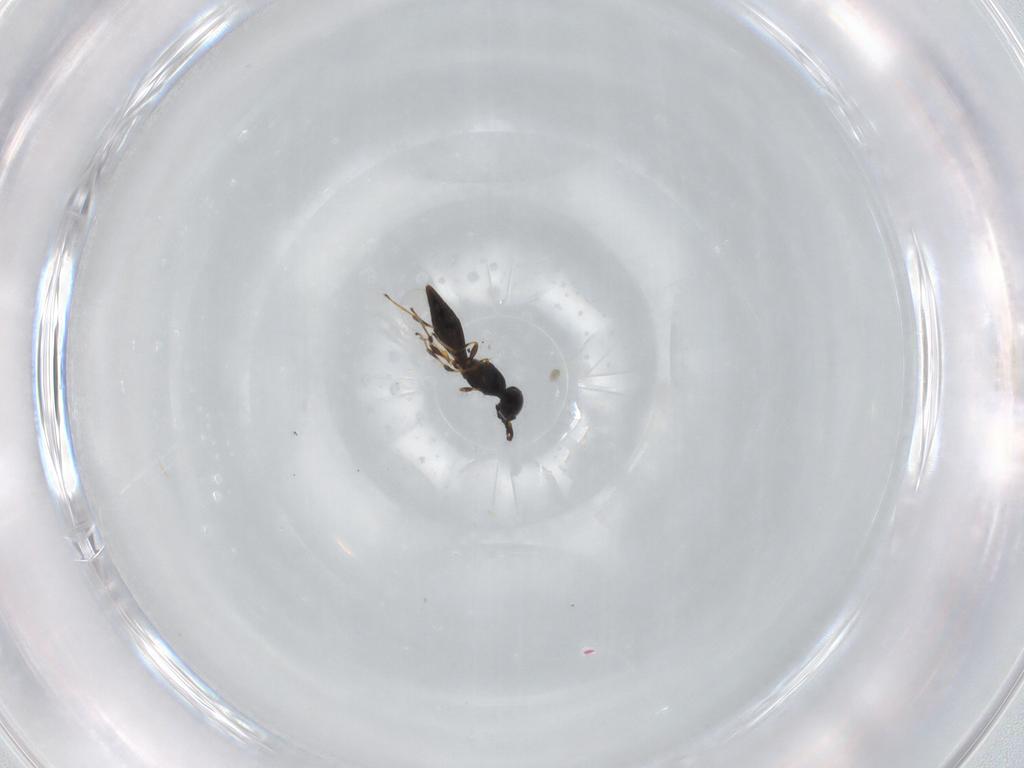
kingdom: Animalia
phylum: Arthropoda
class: Insecta
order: Hymenoptera
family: Platygastridae
